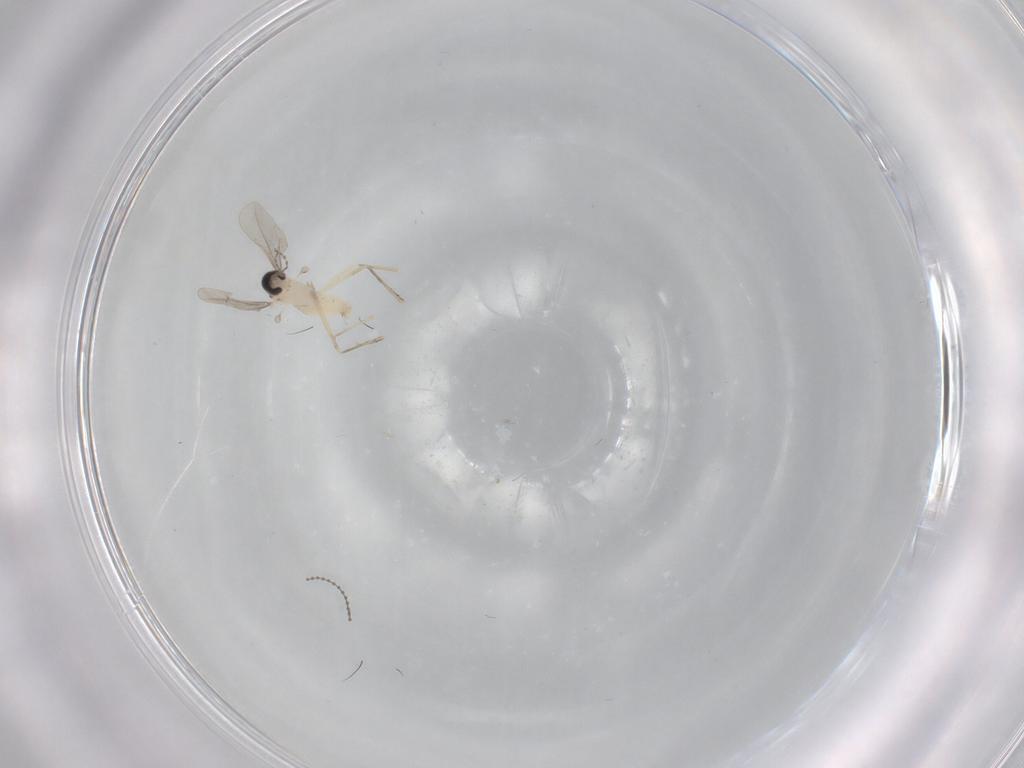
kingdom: Animalia
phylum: Arthropoda
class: Insecta
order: Diptera
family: Cecidomyiidae
